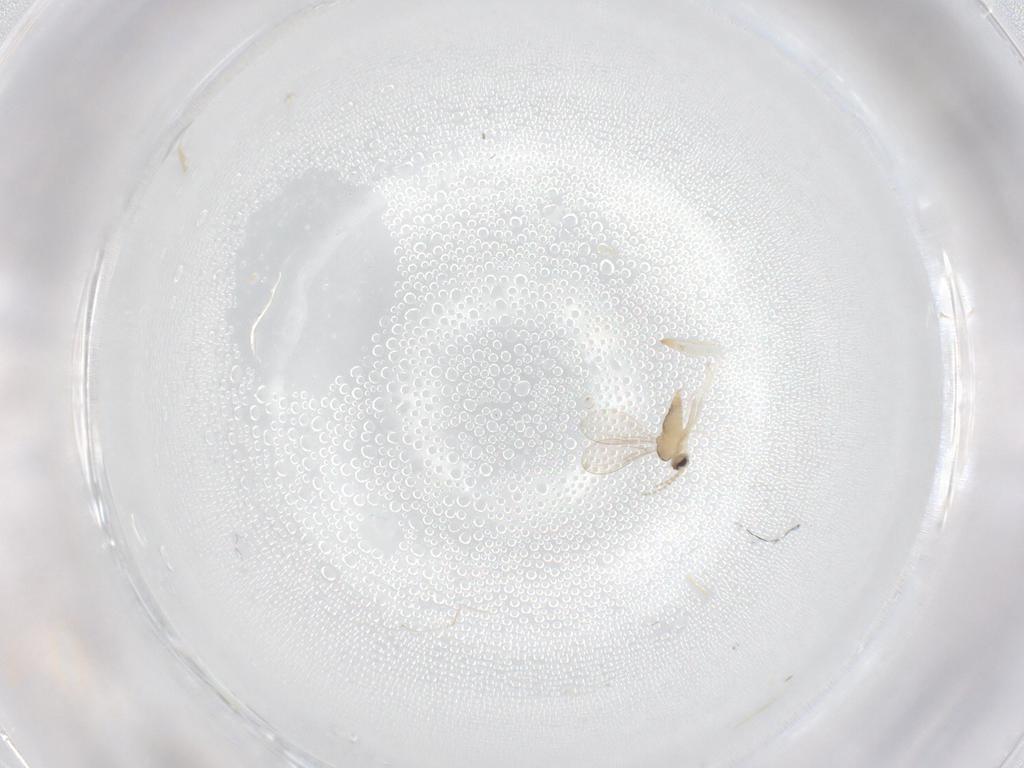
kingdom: Animalia
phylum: Arthropoda
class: Insecta
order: Diptera
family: Cecidomyiidae
